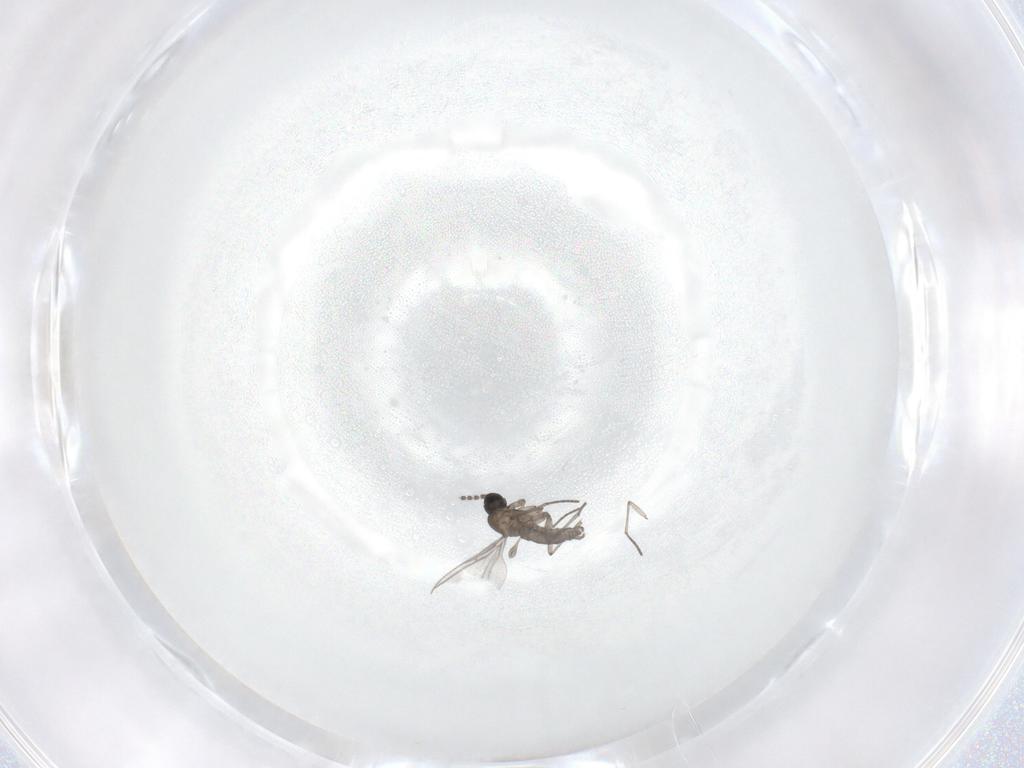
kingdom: Animalia
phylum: Arthropoda
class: Insecta
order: Diptera
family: Sciaridae
